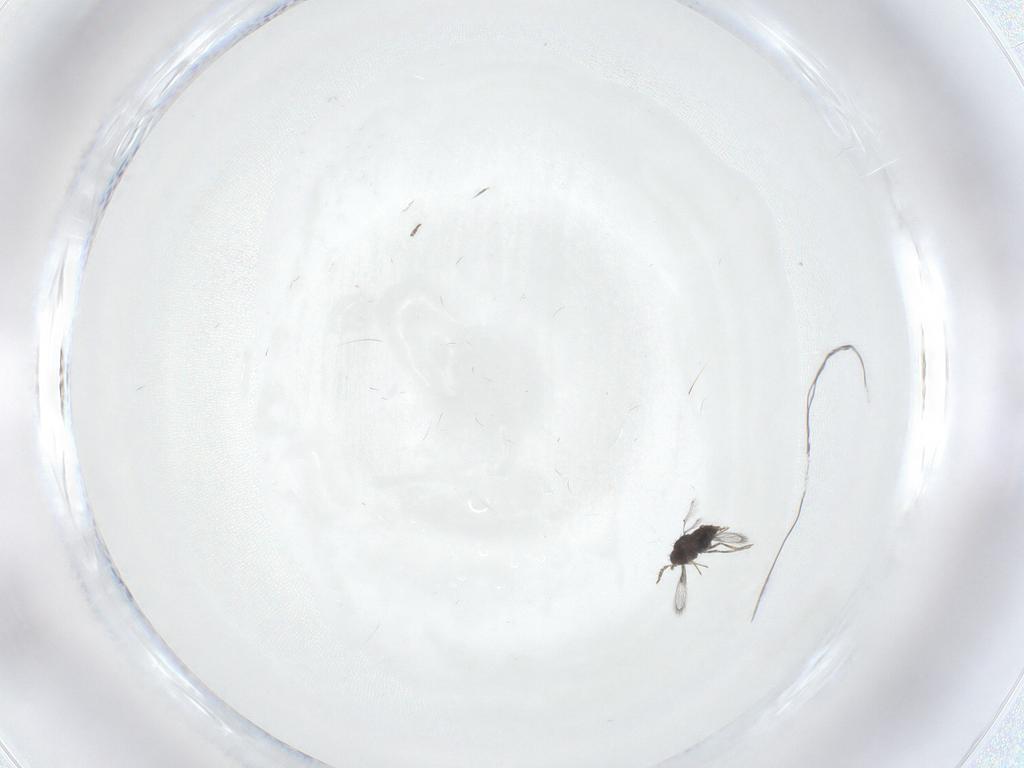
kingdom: Animalia
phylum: Arthropoda
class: Insecta
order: Hymenoptera
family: Trichogrammatidae
